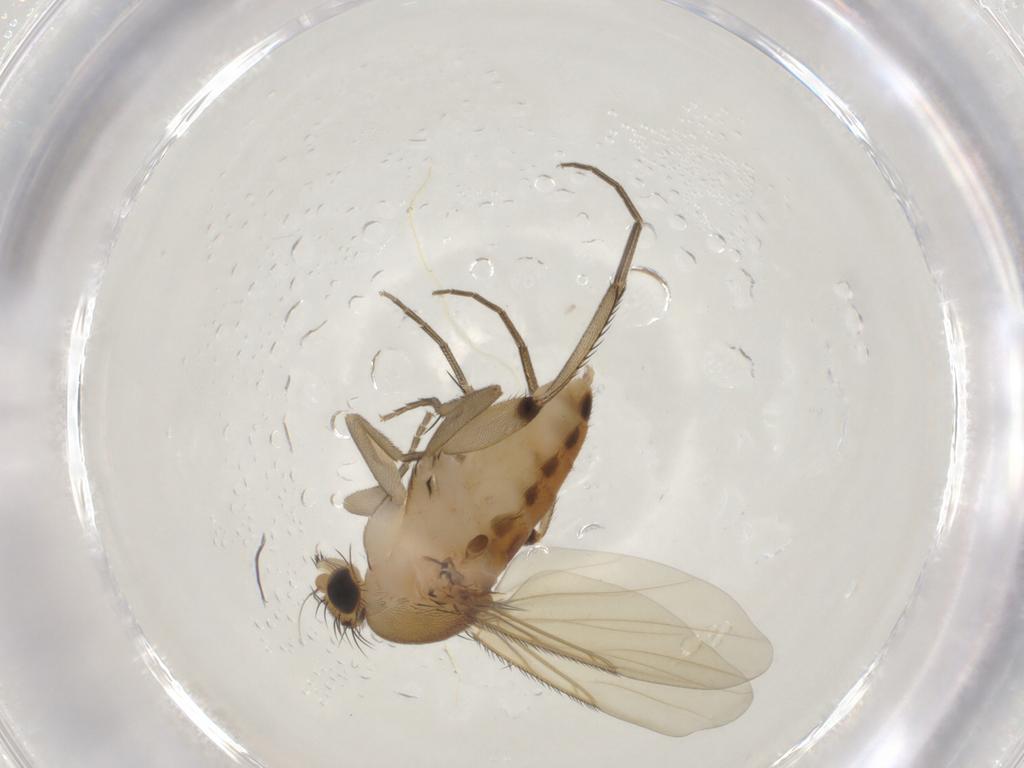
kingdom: Animalia
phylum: Arthropoda
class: Insecta
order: Diptera
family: Phoridae
